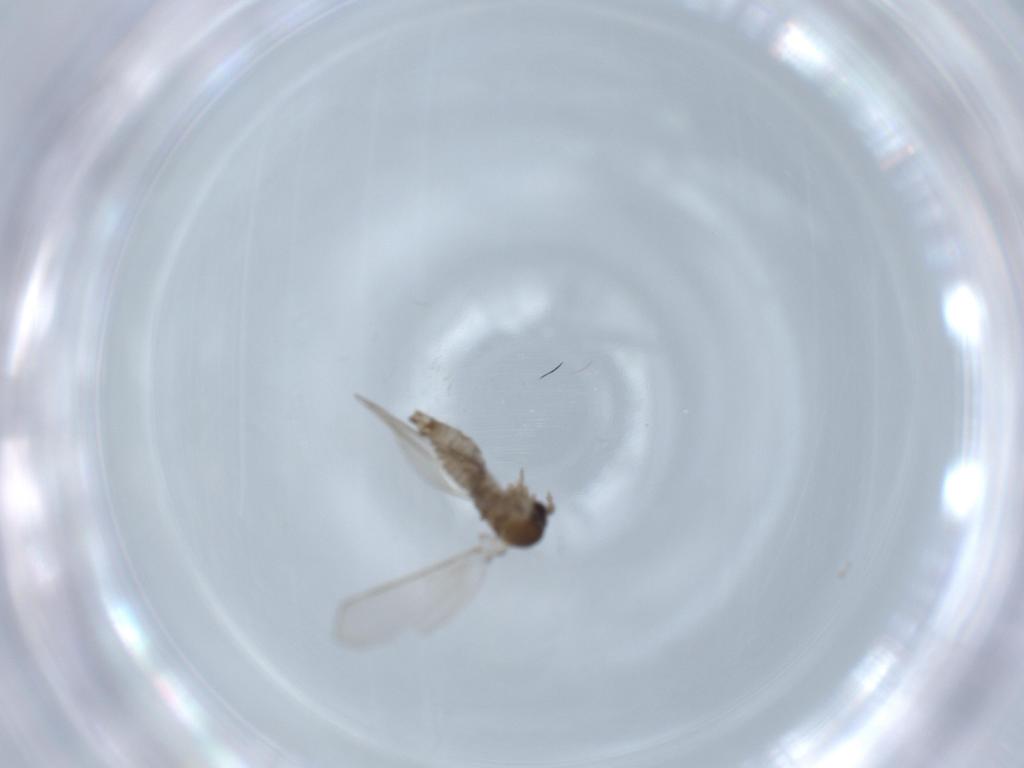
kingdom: Animalia
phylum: Arthropoda
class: Insecta
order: Diptera
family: Psychodidae
